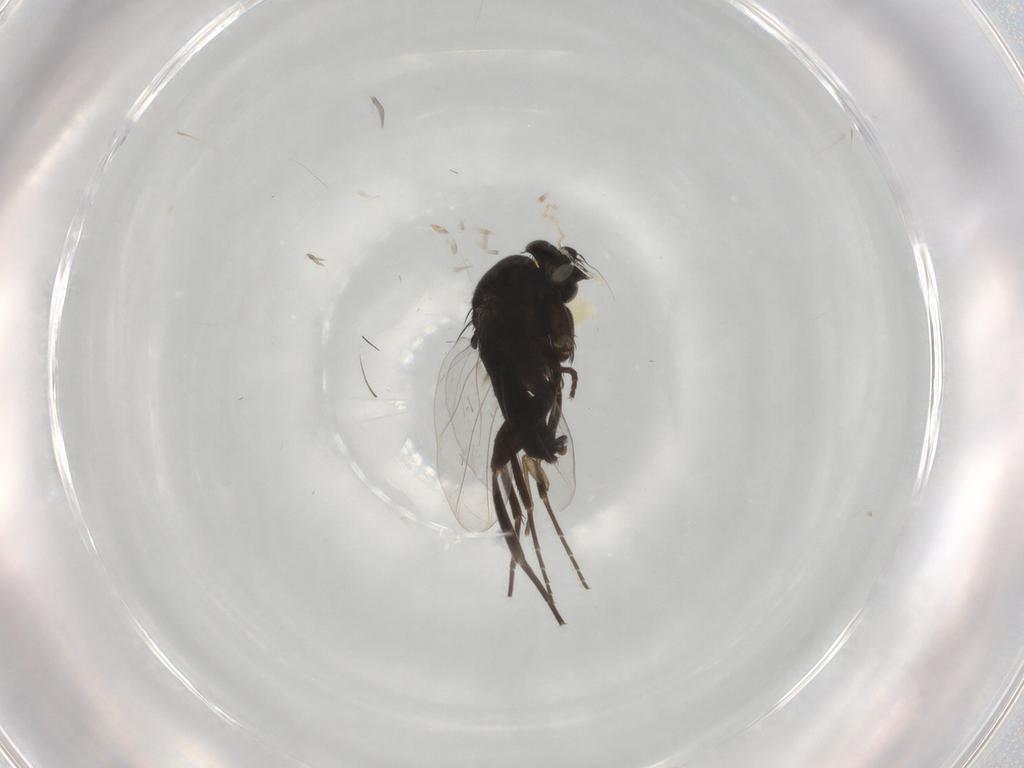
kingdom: Animalia
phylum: Arthropoda
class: Insecta
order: Diptera
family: Phoridae
